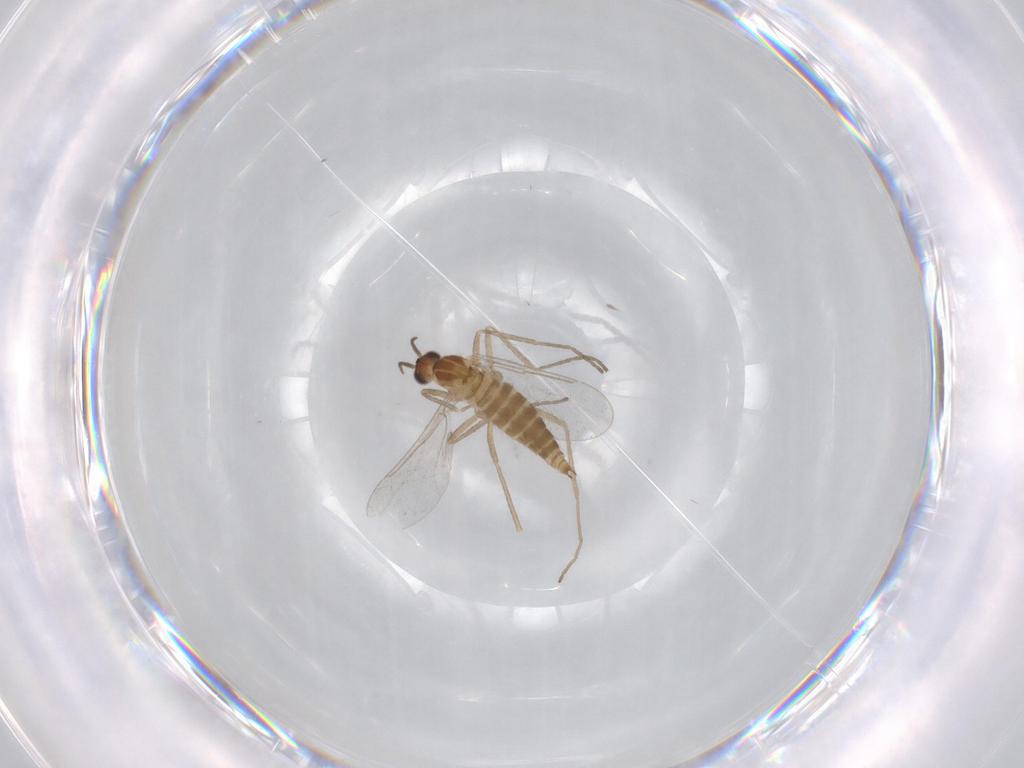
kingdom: Animalia
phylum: Arthropoda
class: Insecta
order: Diptera
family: Cecidomyiidae
